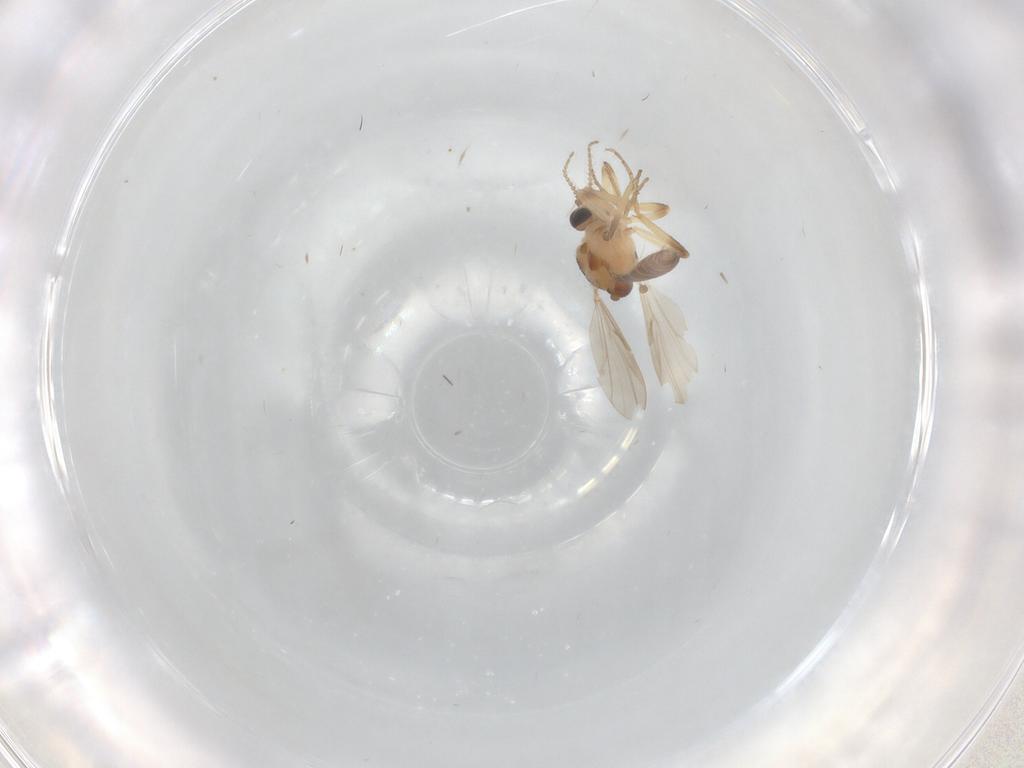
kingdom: Animalia
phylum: Arthropoda
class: Insecta
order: Diptera
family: Ceratopogonidae
